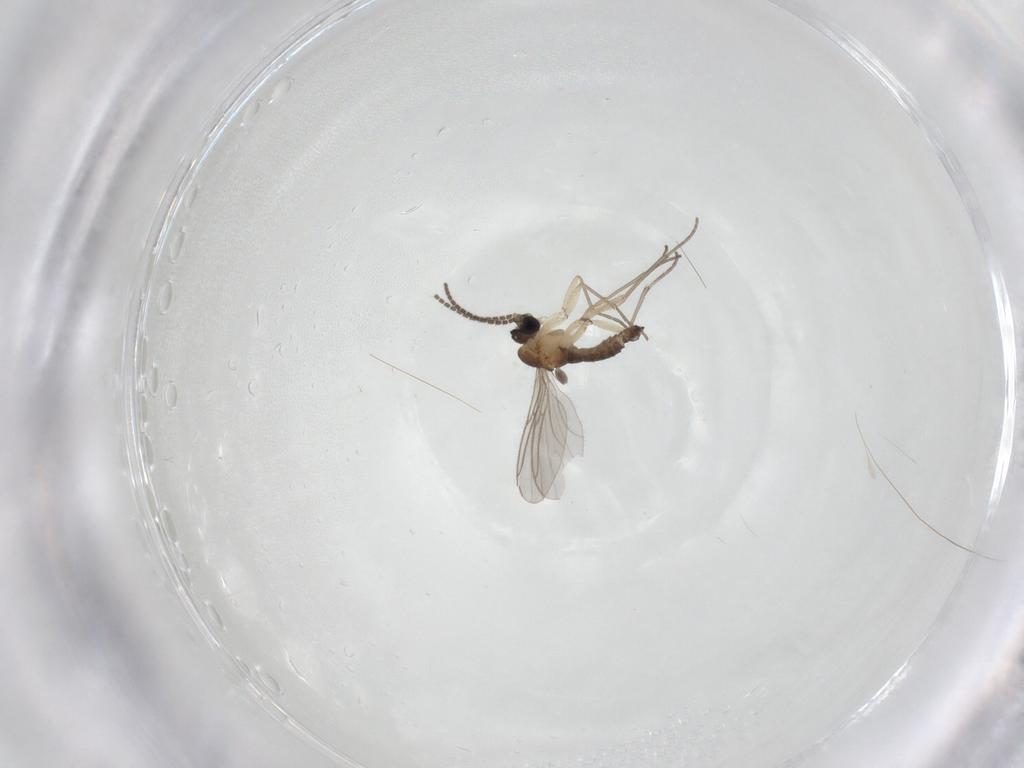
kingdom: Animalia
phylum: Arthropoda
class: Insecta
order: Diptera
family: Sciaridae
